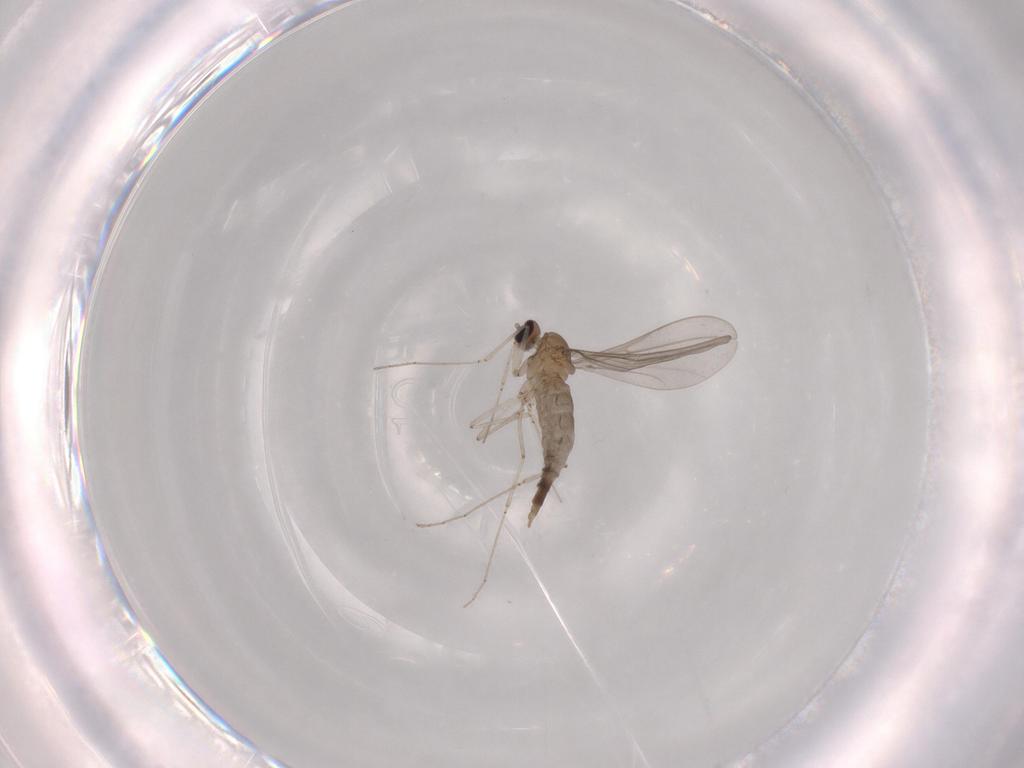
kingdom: Animalia
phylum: Arthropoda
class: Insecta
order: Diptera
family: Cecidomyiidae
